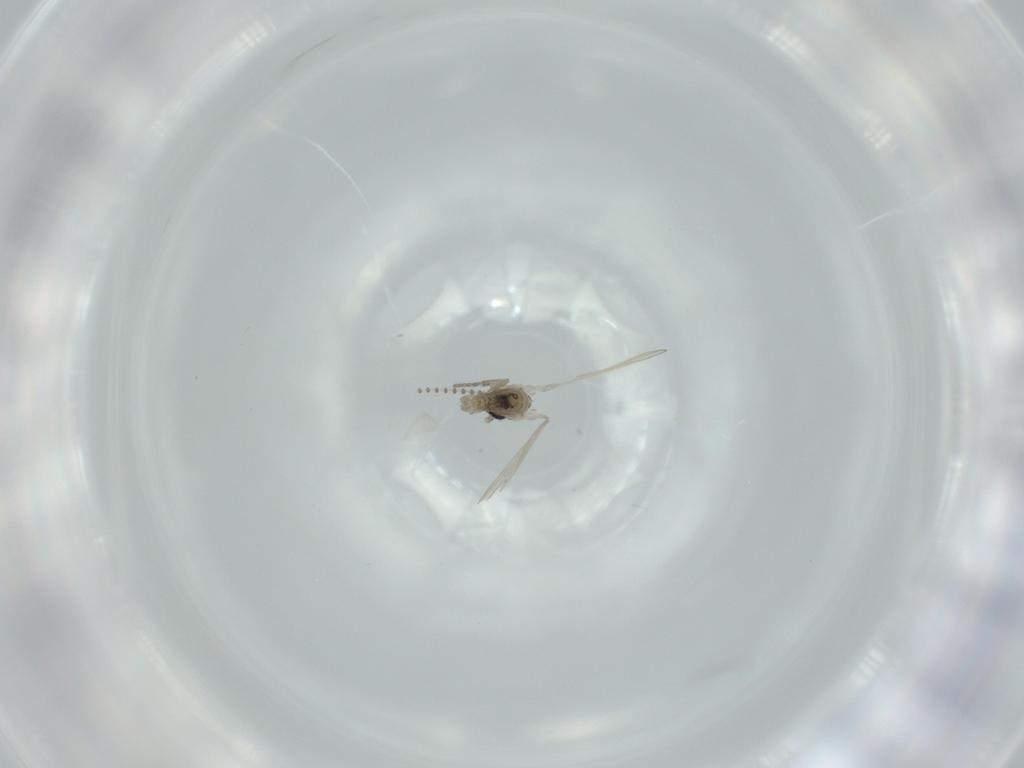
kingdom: Animalia
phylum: Arthropoda
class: Insecta
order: Diptera
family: Psychodidae
